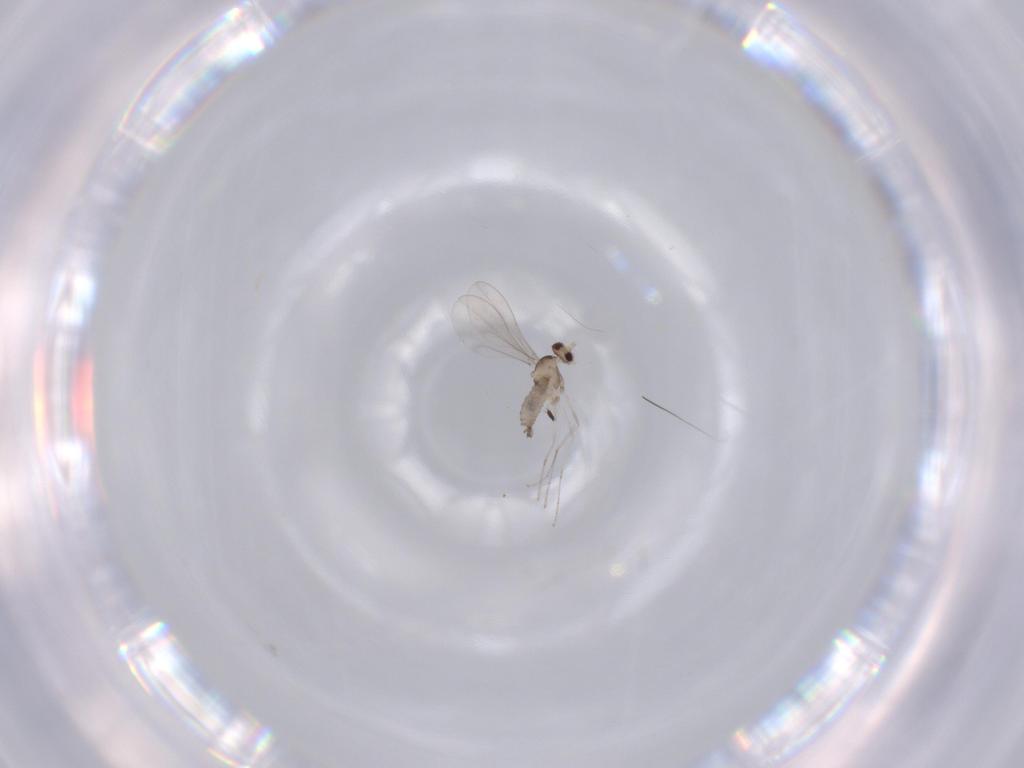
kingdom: Animalia
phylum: Arthropoda
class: Insecta
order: Diptera
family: Cecidomyiidae
